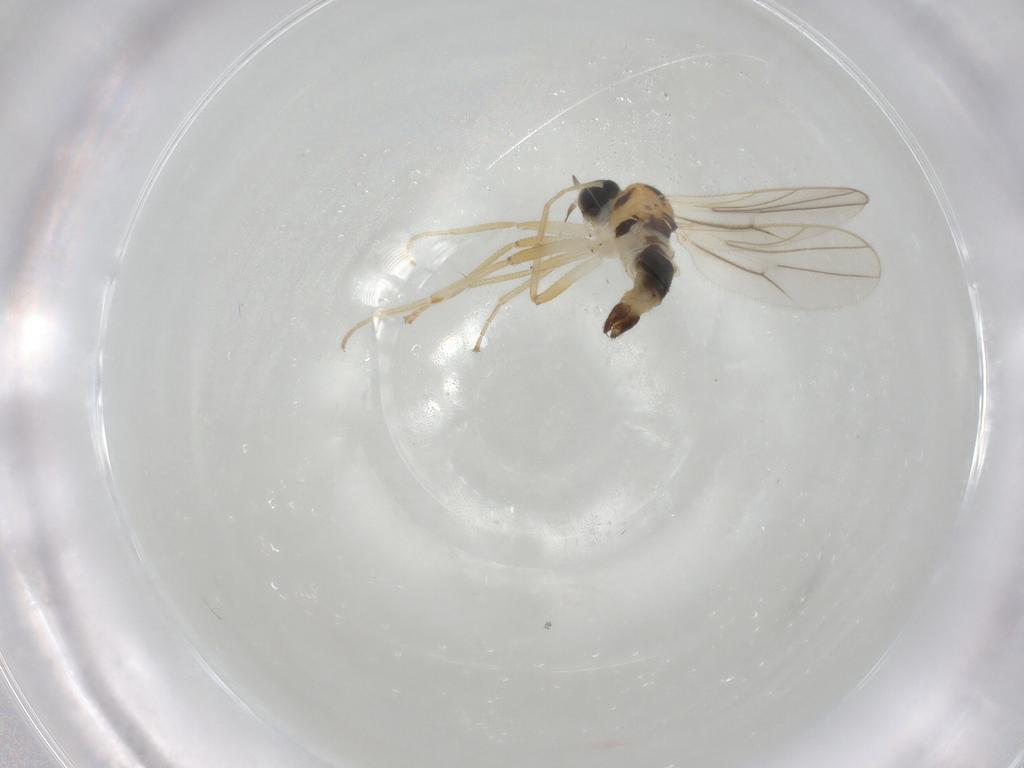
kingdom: Animalia
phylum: Arthropoda
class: Insecta
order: Diptera
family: Hybotidae
